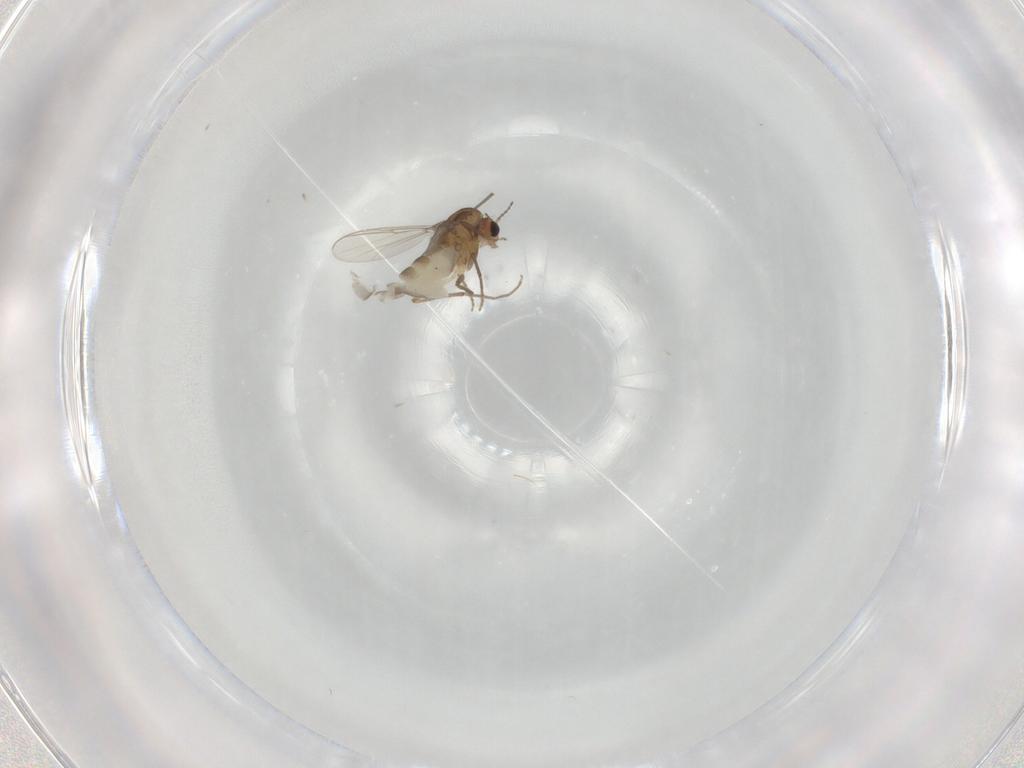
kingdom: Animalia
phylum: Arthropoda
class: Insecta
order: Diptera
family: Chironomidae
